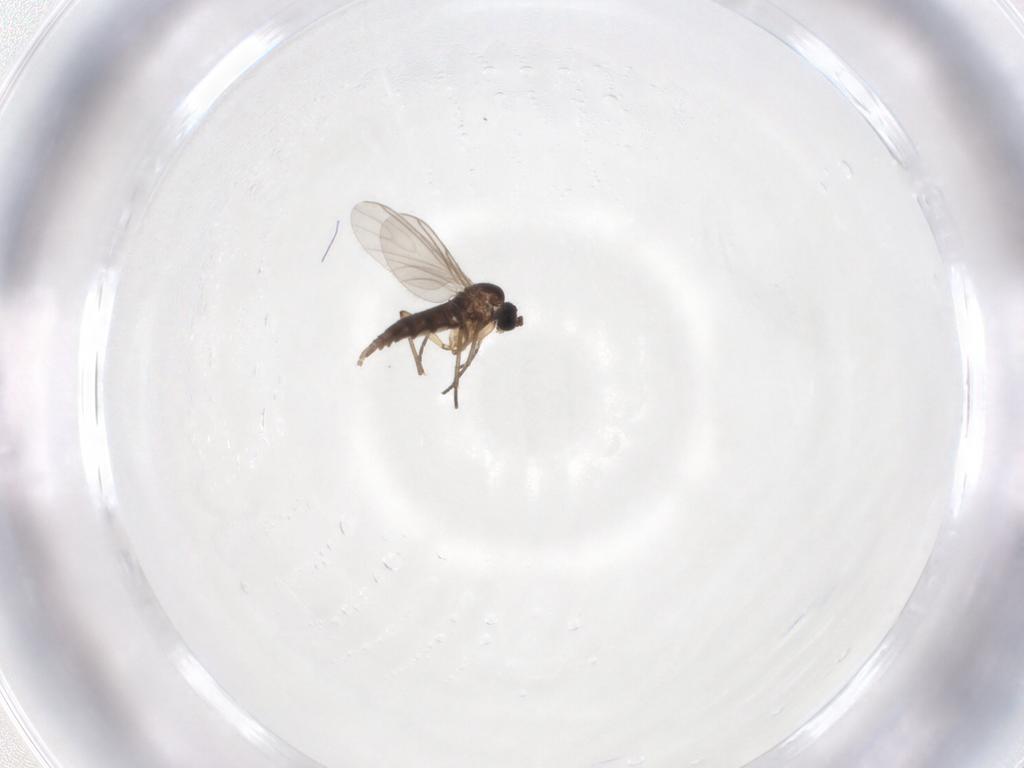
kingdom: Animalia
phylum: Arthropoda
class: Insecta
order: Diptera
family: Sciaridae
